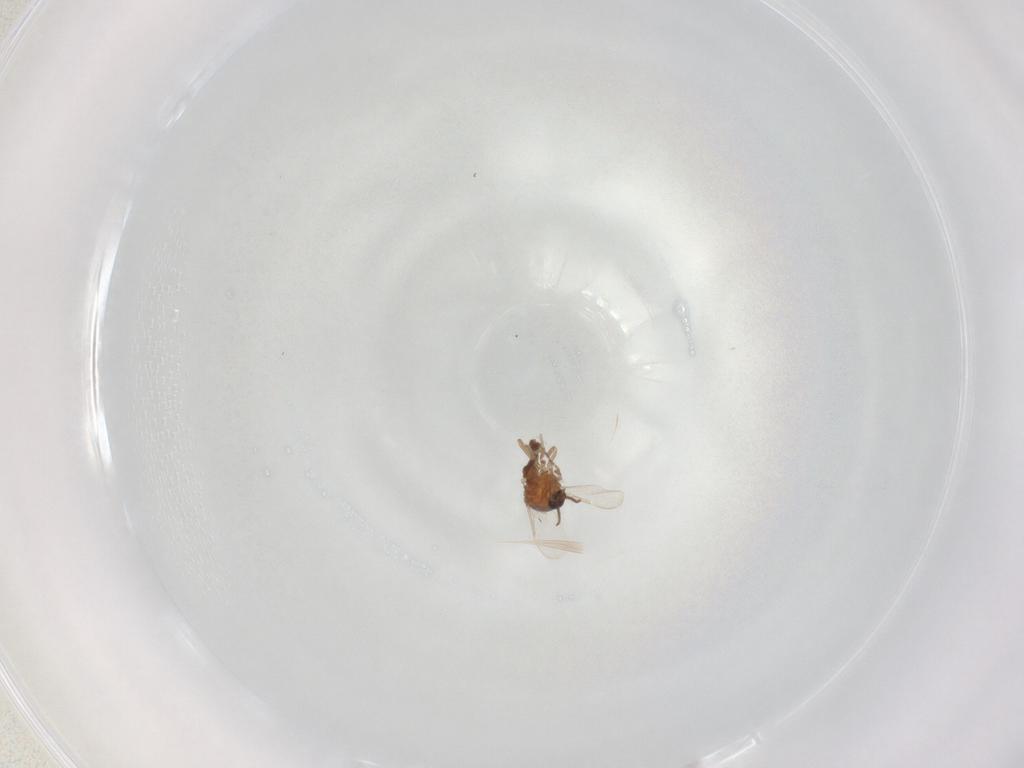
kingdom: Animalia
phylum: Arthropoda
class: Insecta
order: Diptera
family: Ceratopogonidae
